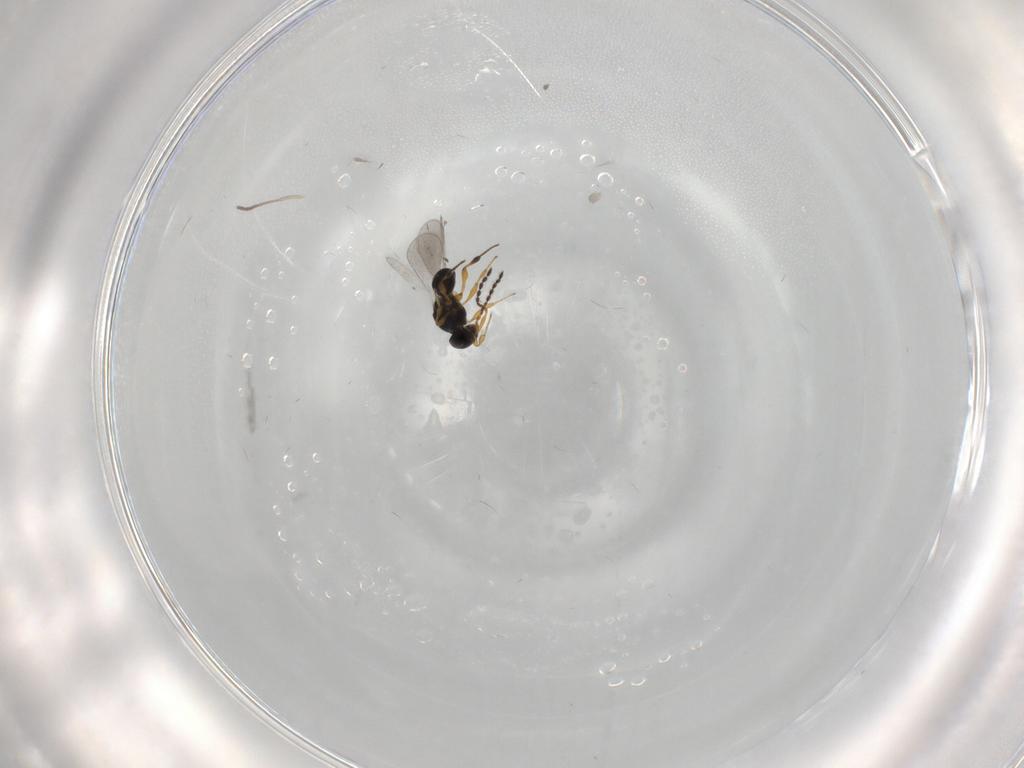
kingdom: Animalia
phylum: Arthropoda
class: Insecta
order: Hymenoptera
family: Platygastridae
